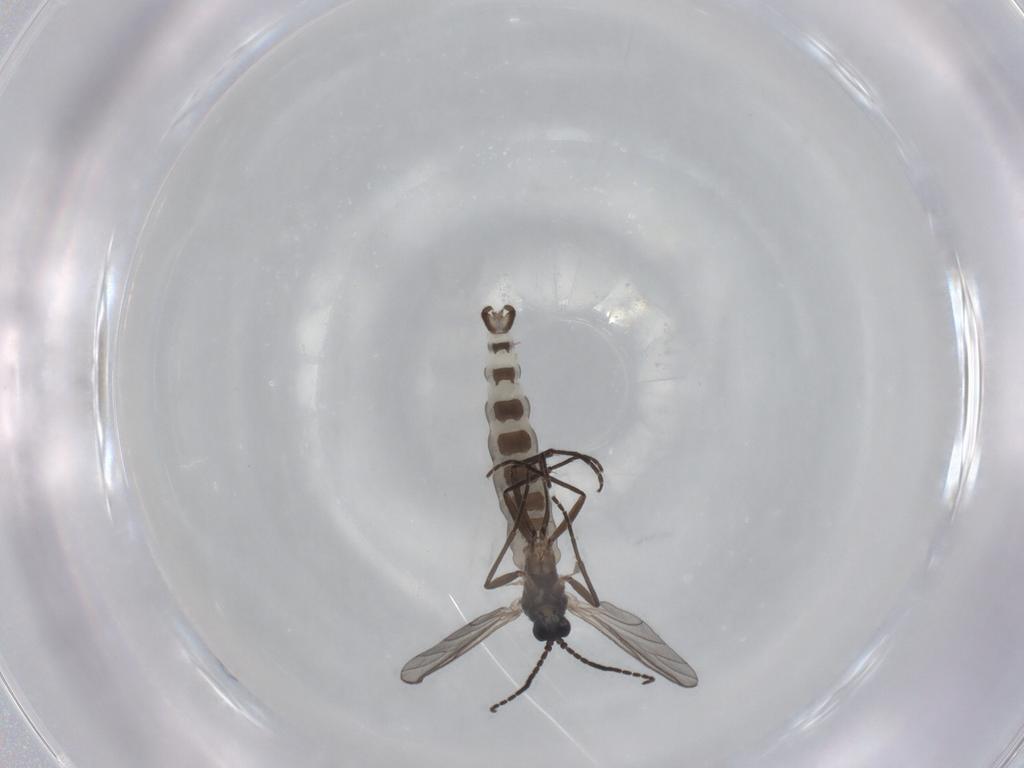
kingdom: Animalia
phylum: Arthropoda
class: Insecta
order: Diptera
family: Sciaridae
